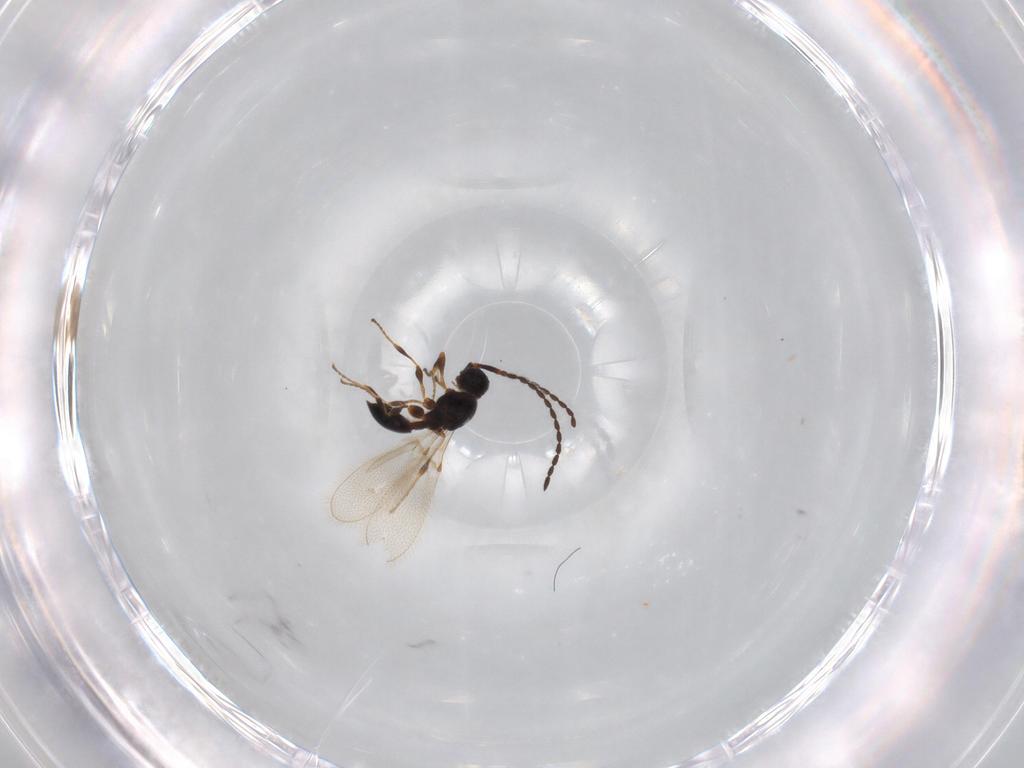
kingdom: Animalia
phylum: Arthropoda
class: Insecta
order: Hymenoptera
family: Diapriidae
